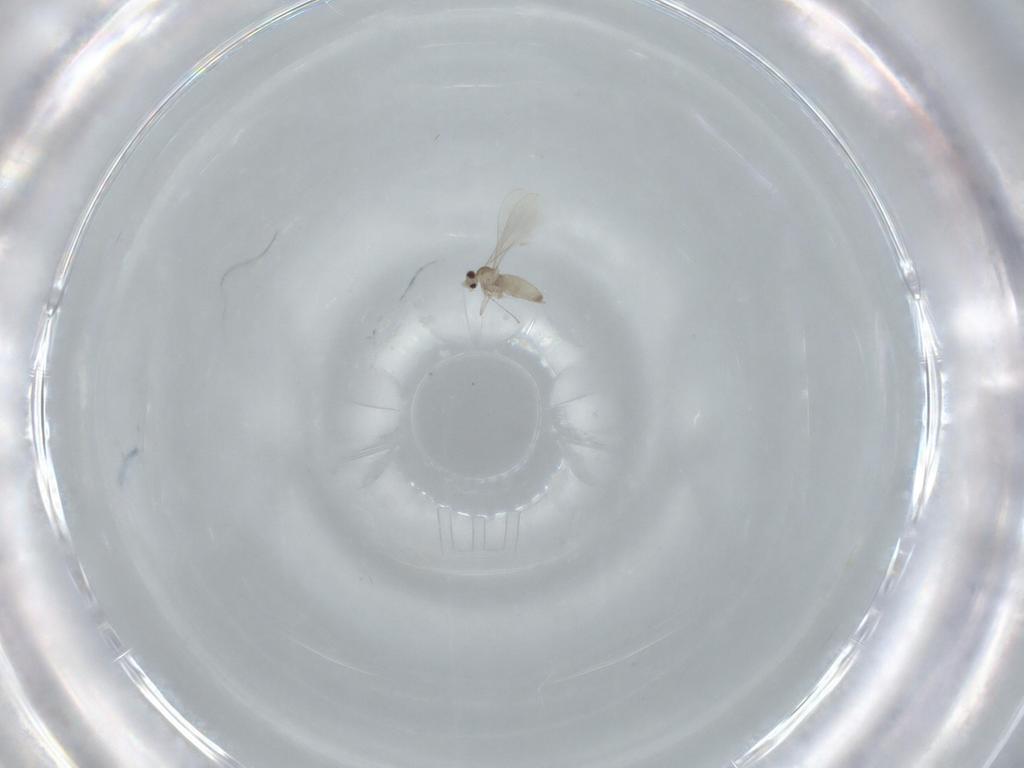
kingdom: Animalia
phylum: Arthropoda
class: Insecta
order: Diptera
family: Cecidomyiidae
